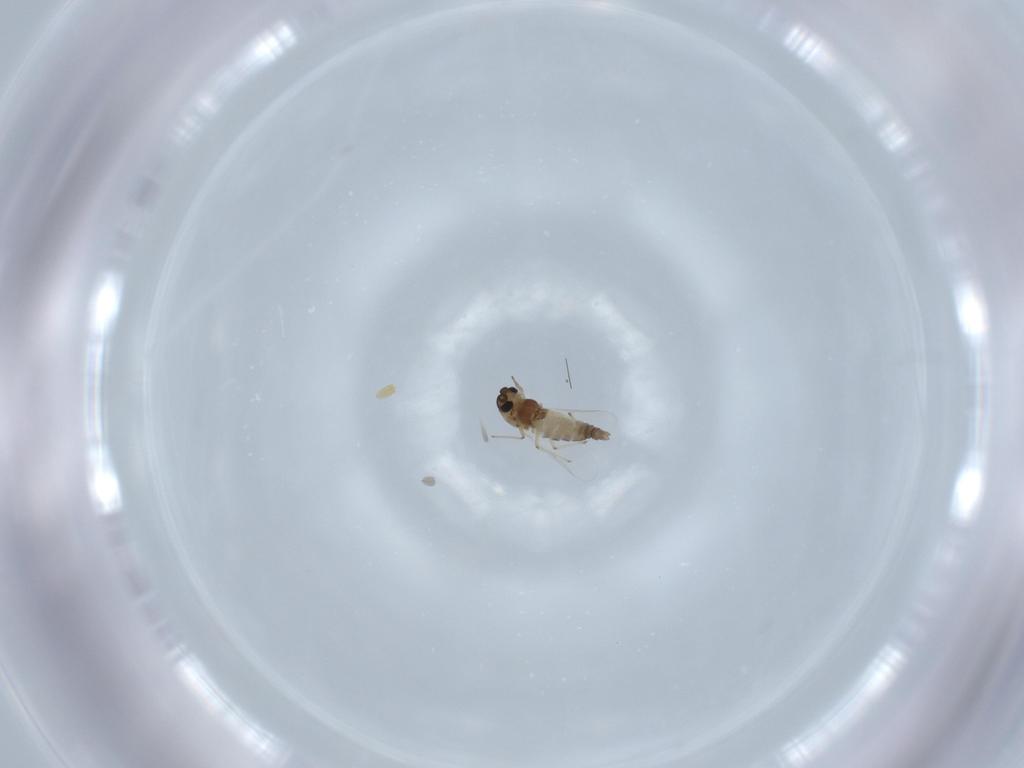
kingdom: Animalia
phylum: Arthropoda
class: Insecta
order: Diptera
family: Chironomidae
